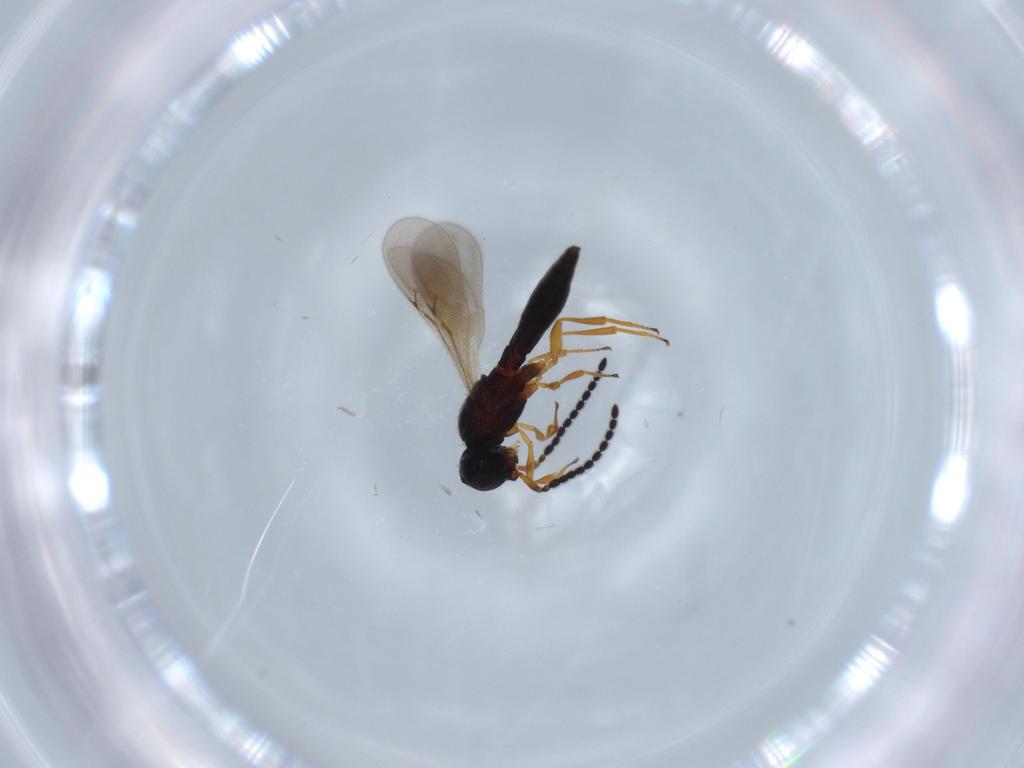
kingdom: Animalia
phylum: Arthropoda
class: Insecta
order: Hymenoptera
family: Scelionidae
